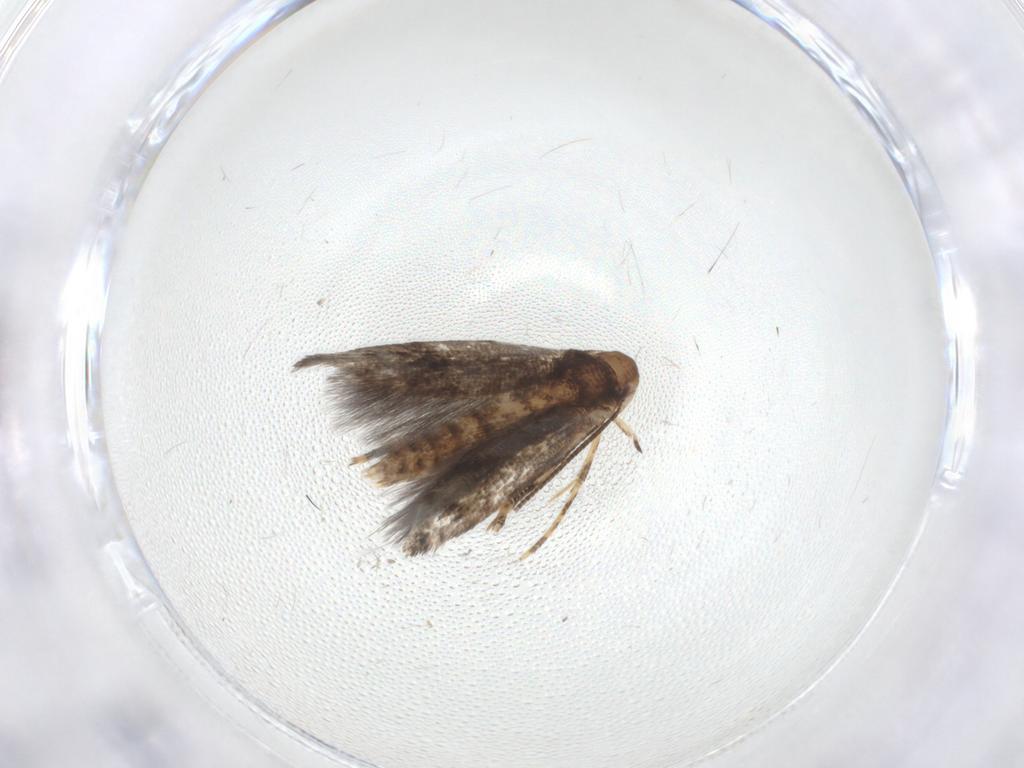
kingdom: Animalia
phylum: Arthropoda
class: Insecta
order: Lepidoptera
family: Momphidae
